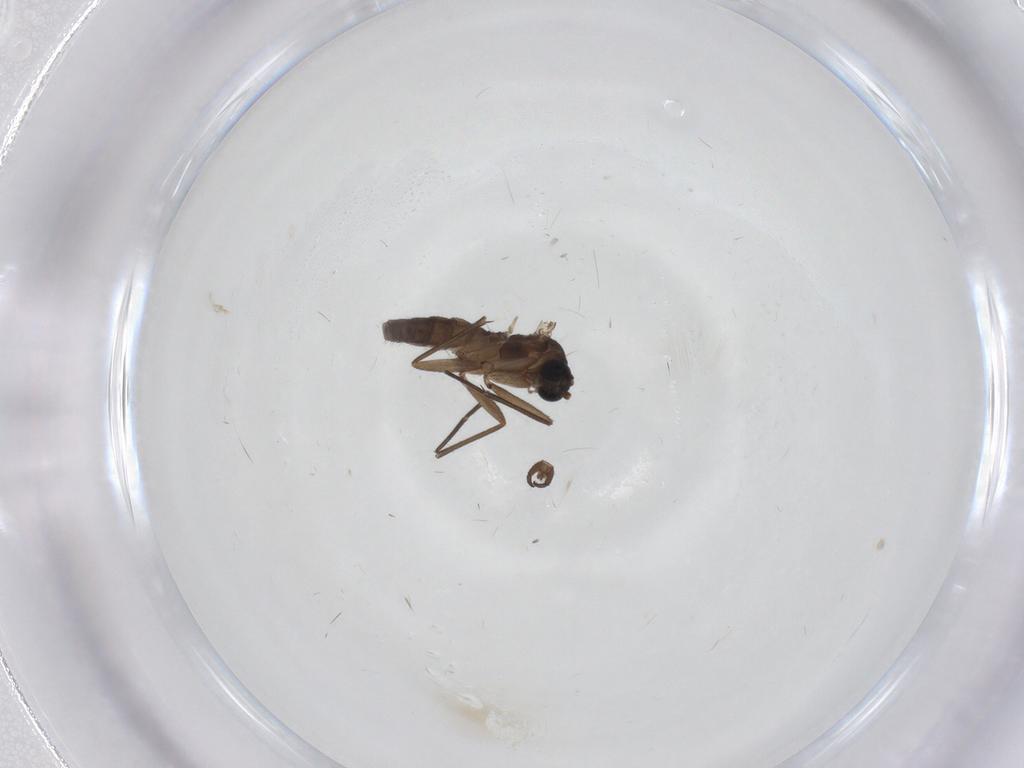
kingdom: Animalia
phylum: Arthropoda
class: Insecta
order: Diptera
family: Sciaridae
